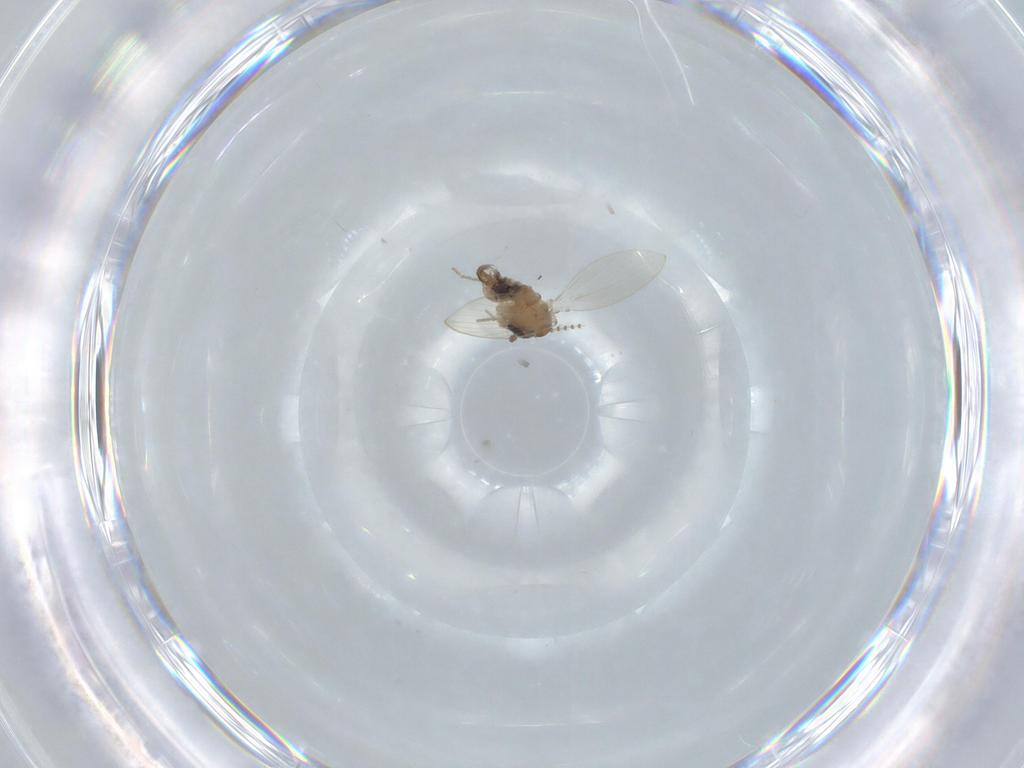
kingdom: Animalia
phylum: Arthropoda
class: Insecta
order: Diptera
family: Psychodidae
